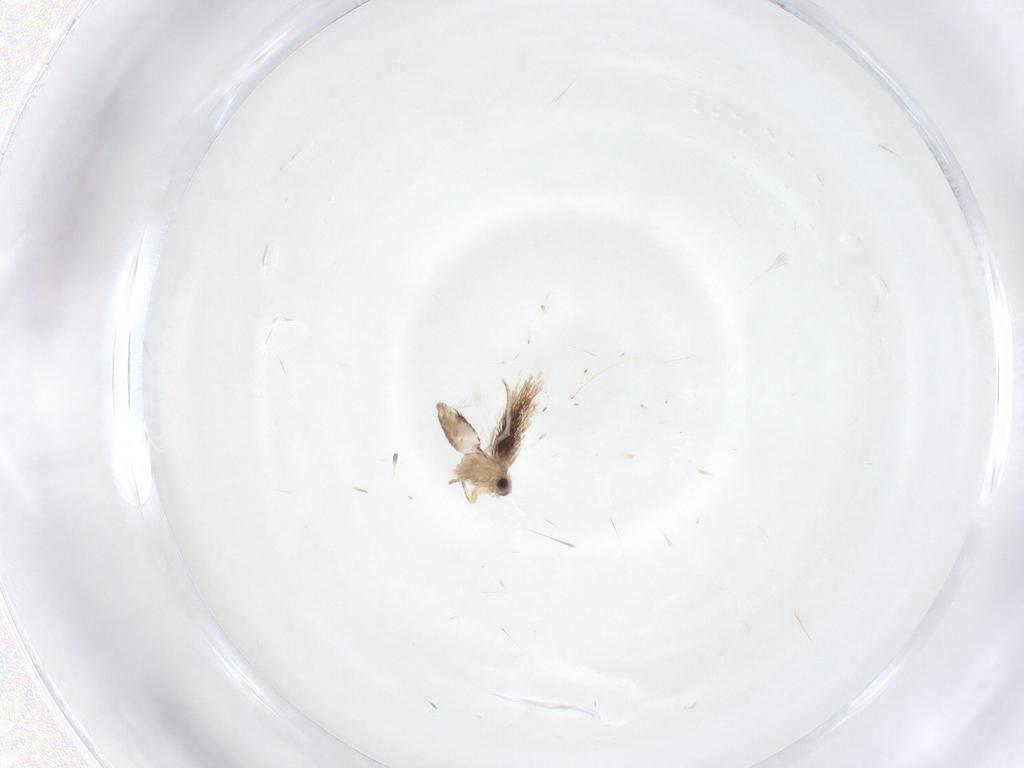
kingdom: Animalia
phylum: Arthropoda
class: Insecta
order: Lepidoptera
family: Nepticulidae
